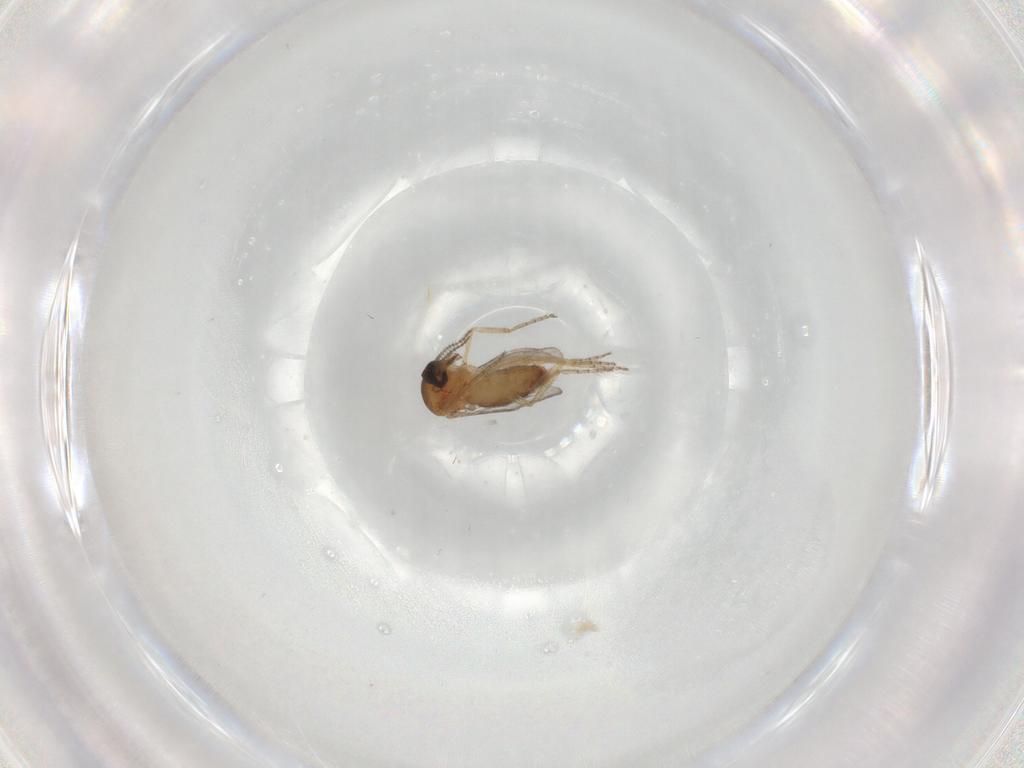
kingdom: Animalia
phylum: Arthropoda
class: Insecta
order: Diptera
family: Ceratopogonidae
